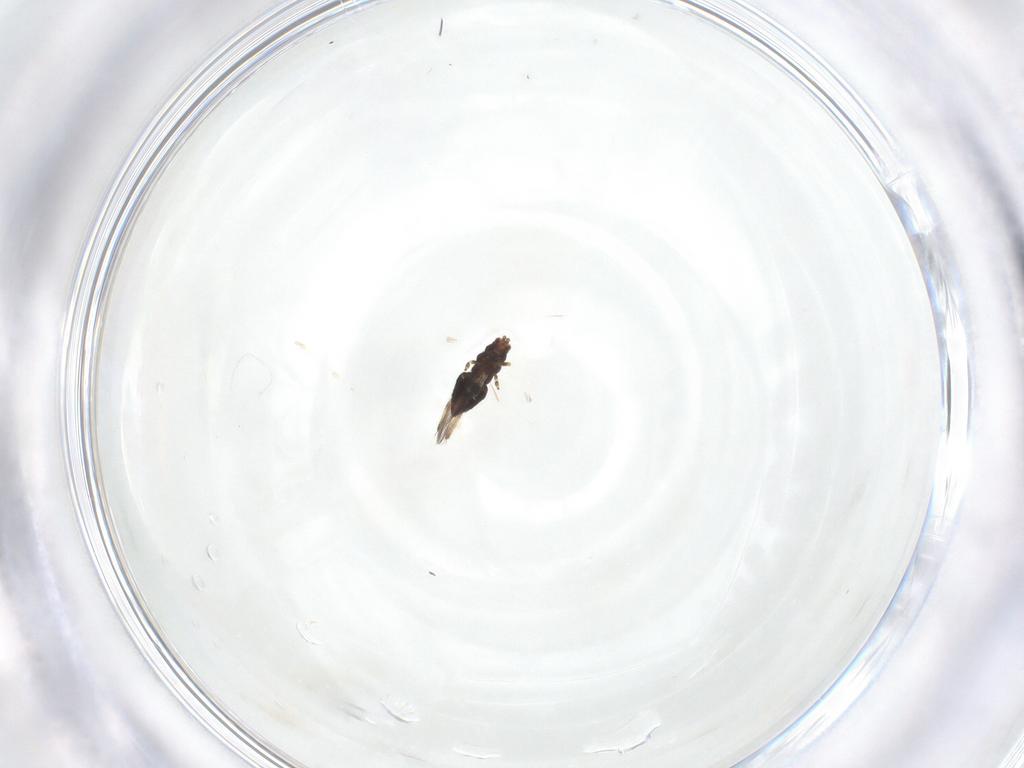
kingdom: Animalia
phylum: Arthropoda
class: Insecta
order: Thysanoptera
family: Thripidae
